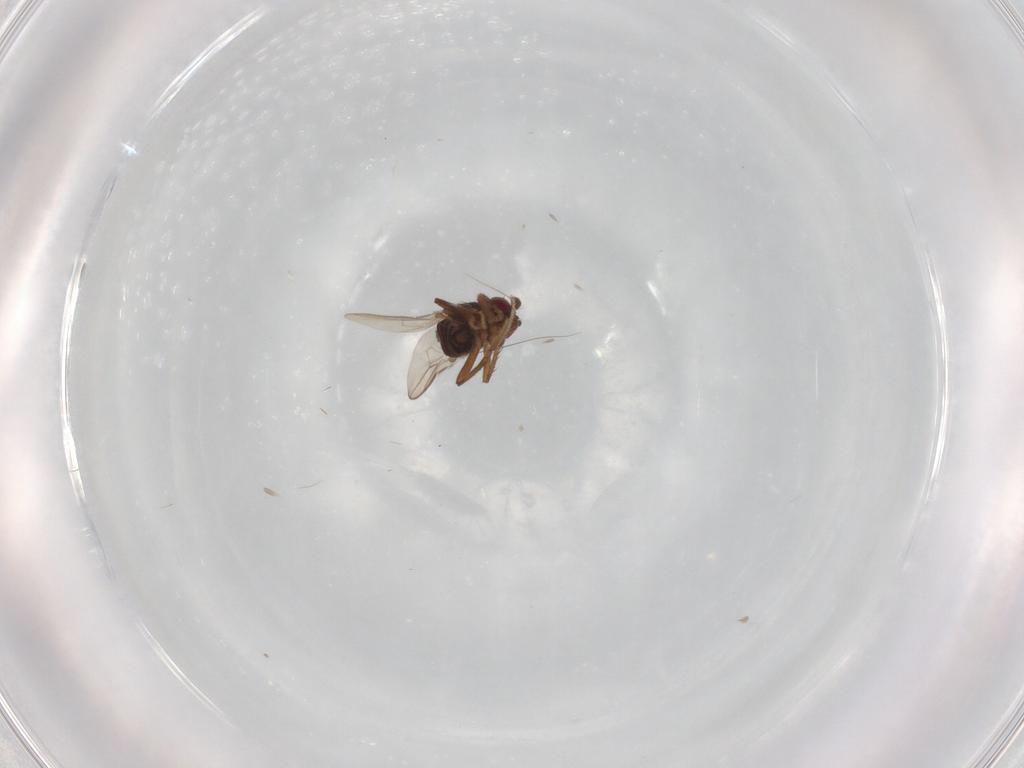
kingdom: Animalia
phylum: Arthropoda
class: Insecta
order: Diptera
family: Sphaeroceridae
